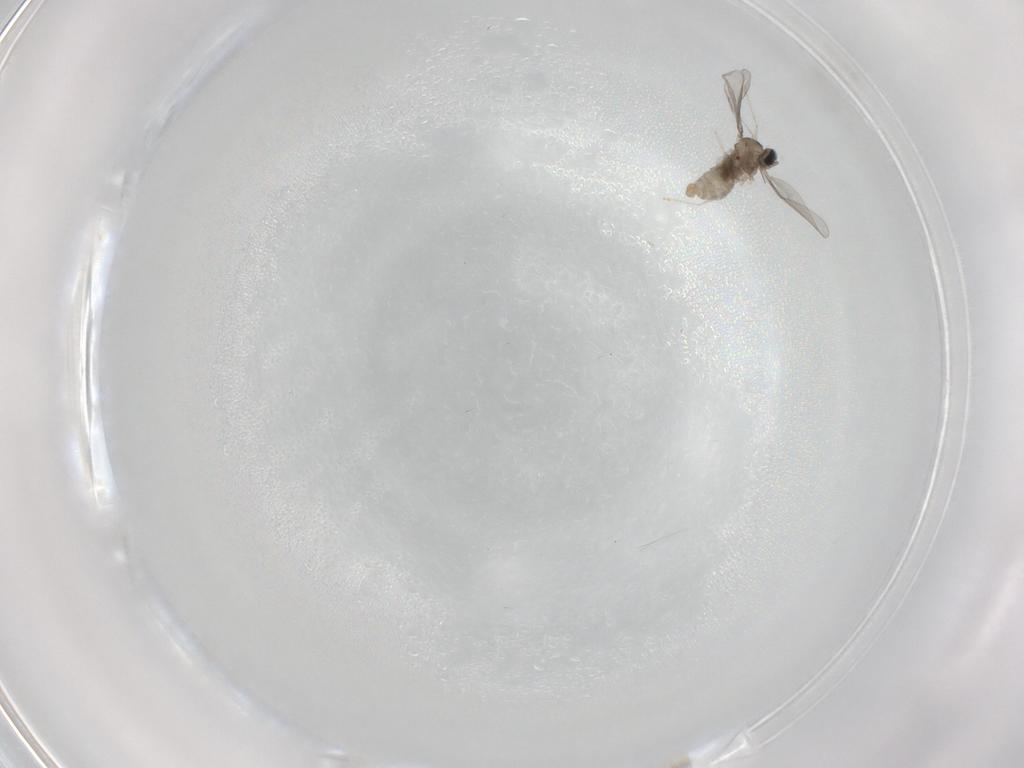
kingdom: Animalia
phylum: Arthropoda
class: Insecta
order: Diptera
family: Cecidomyiidae
